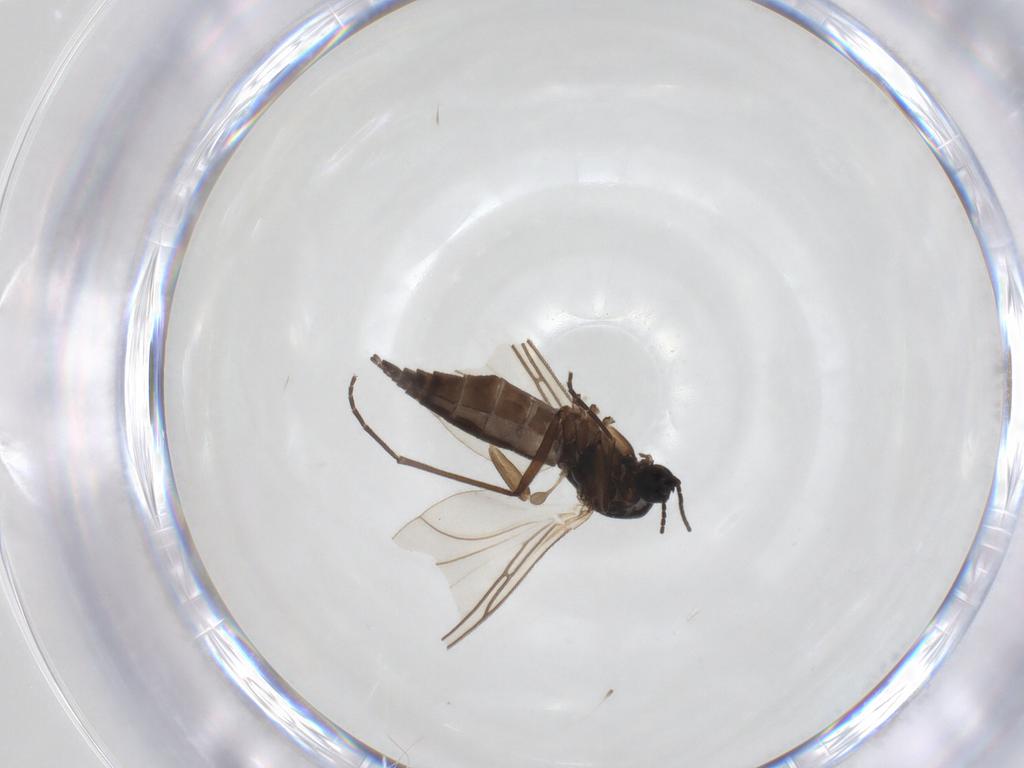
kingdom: Animalia
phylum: Arthropoda
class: Insecta
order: Diptera
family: Sciaridae
